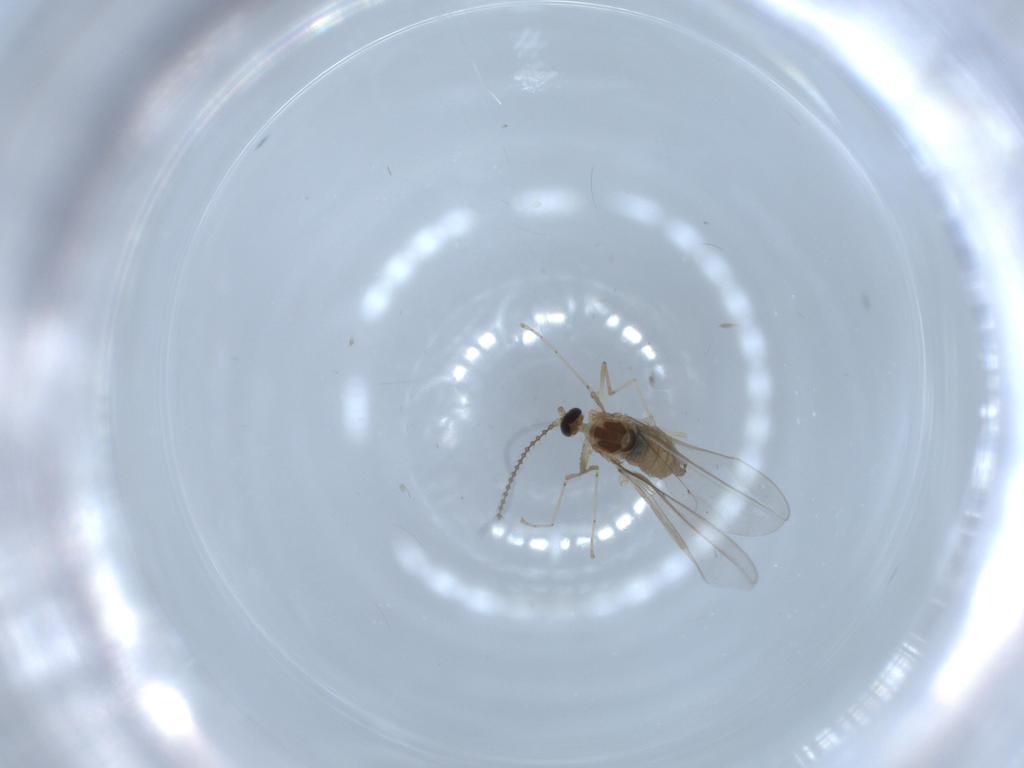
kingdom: Animalia
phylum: Arthropoda
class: Insecta
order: Diptera
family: Cecidomyiidae
